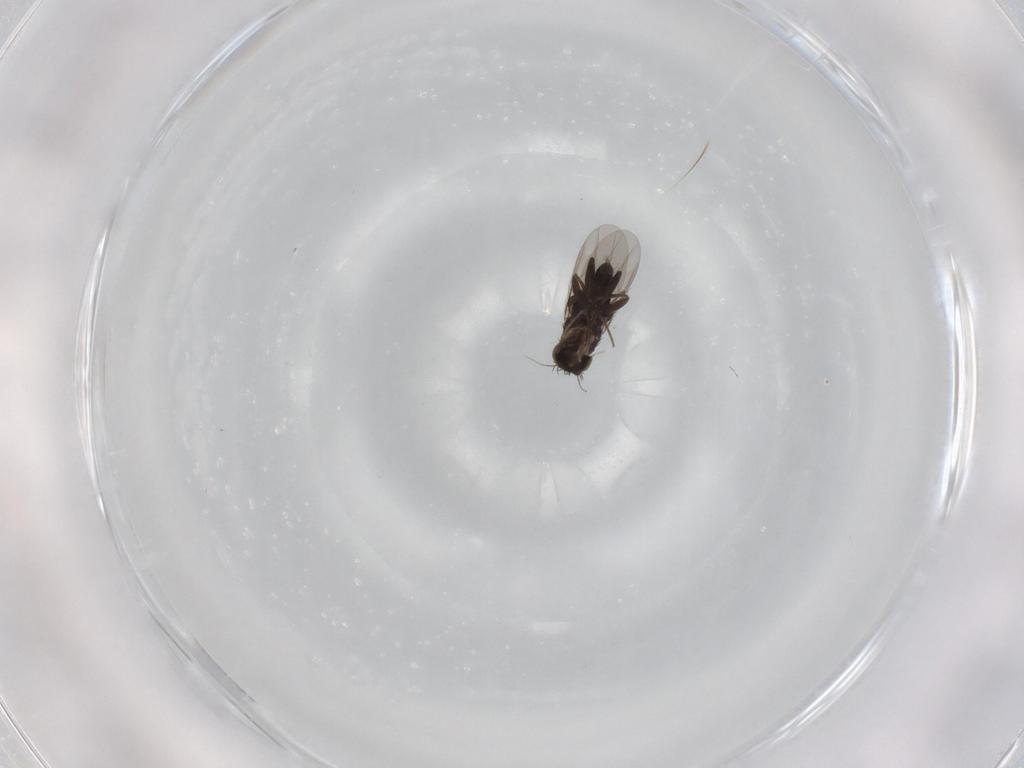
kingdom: Animalia
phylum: Arthropoda
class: Insecta
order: Diptera
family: Phoridae
